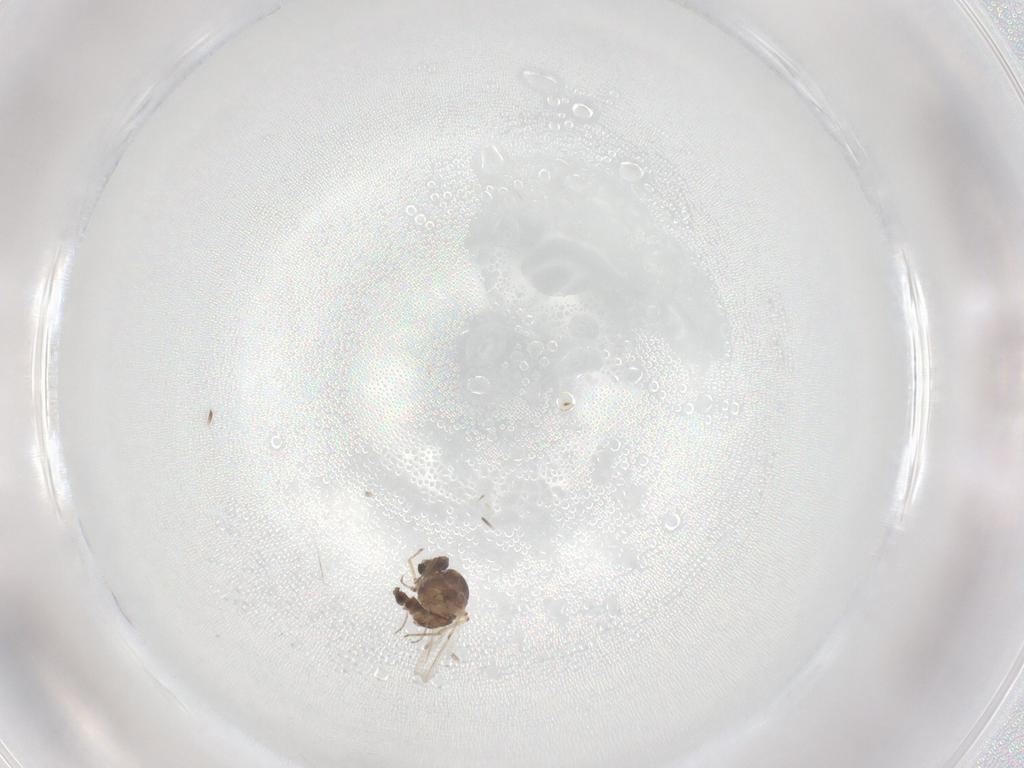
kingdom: Animalia
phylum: Arthropoda
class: Insecta
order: Diptera
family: Ceratopogonidae
